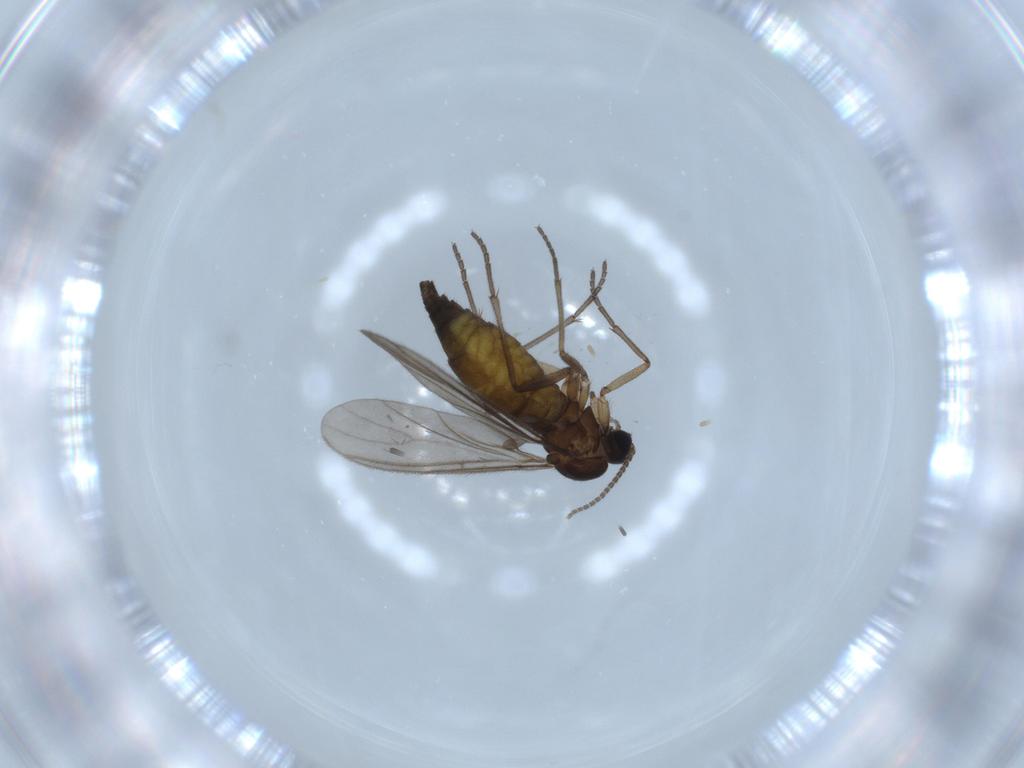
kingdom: Animalia
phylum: Arthropoda
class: Insecta
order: Diptera
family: Sciaridae
